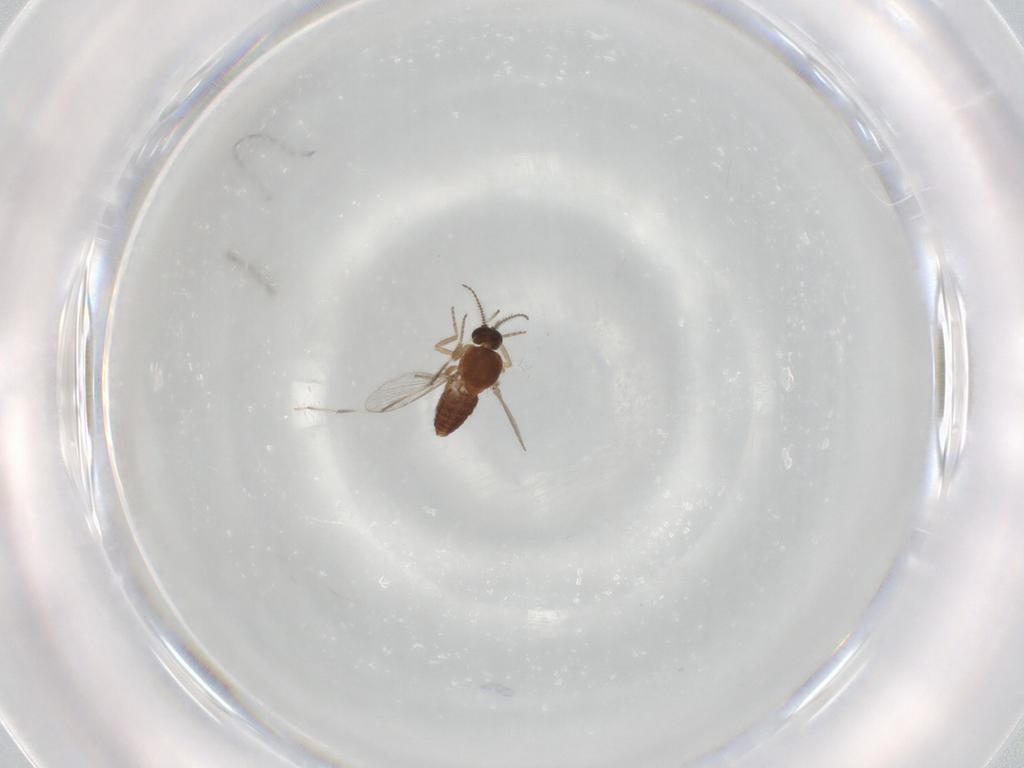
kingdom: Animalia
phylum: Arthropoda
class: Insecta
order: Diptera
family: Ceratopogonidae
